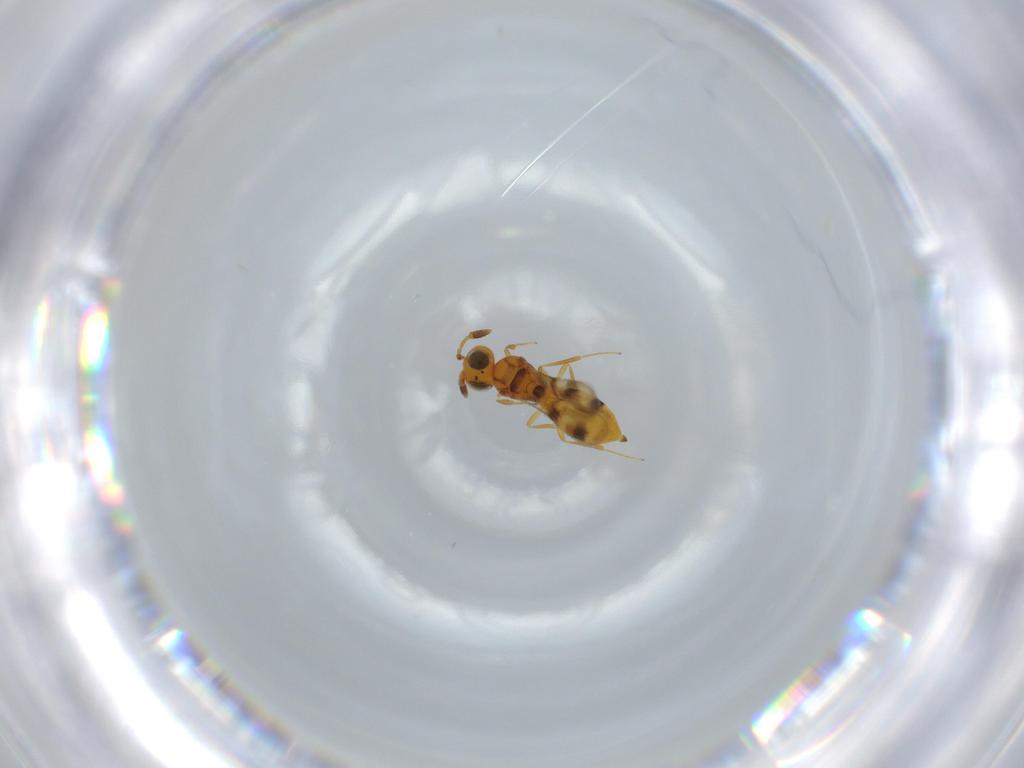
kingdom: Animalia
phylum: Arthropoda
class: Insecta
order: Hymenoptera
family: Scelionidae
